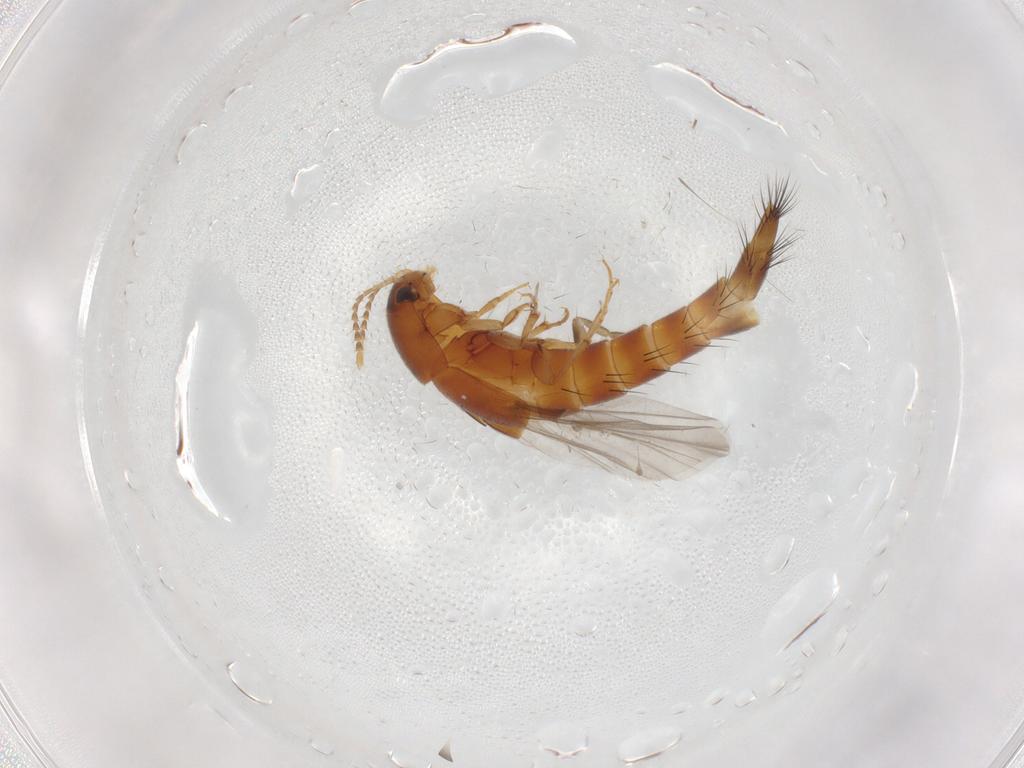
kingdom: Animalia
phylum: Arthropoda
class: Insecta
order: Coleoptera
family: Staphylinidae
